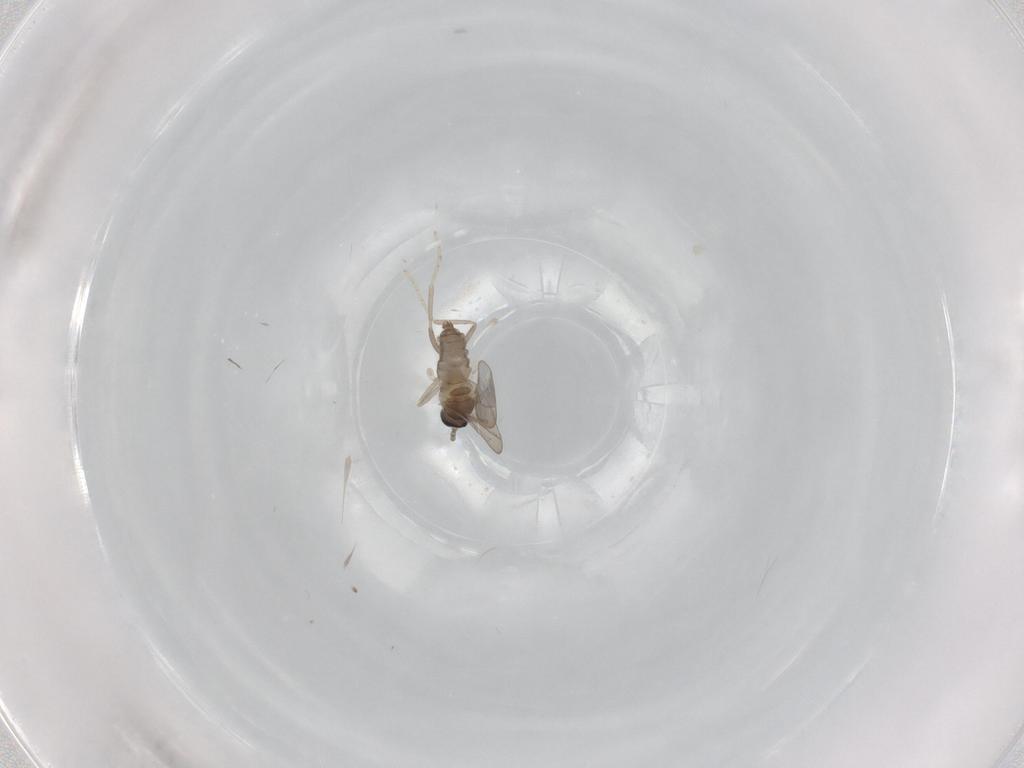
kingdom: Animalia
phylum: Arthropoda
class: Insecta
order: Diptera
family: Cecidomyiidae
